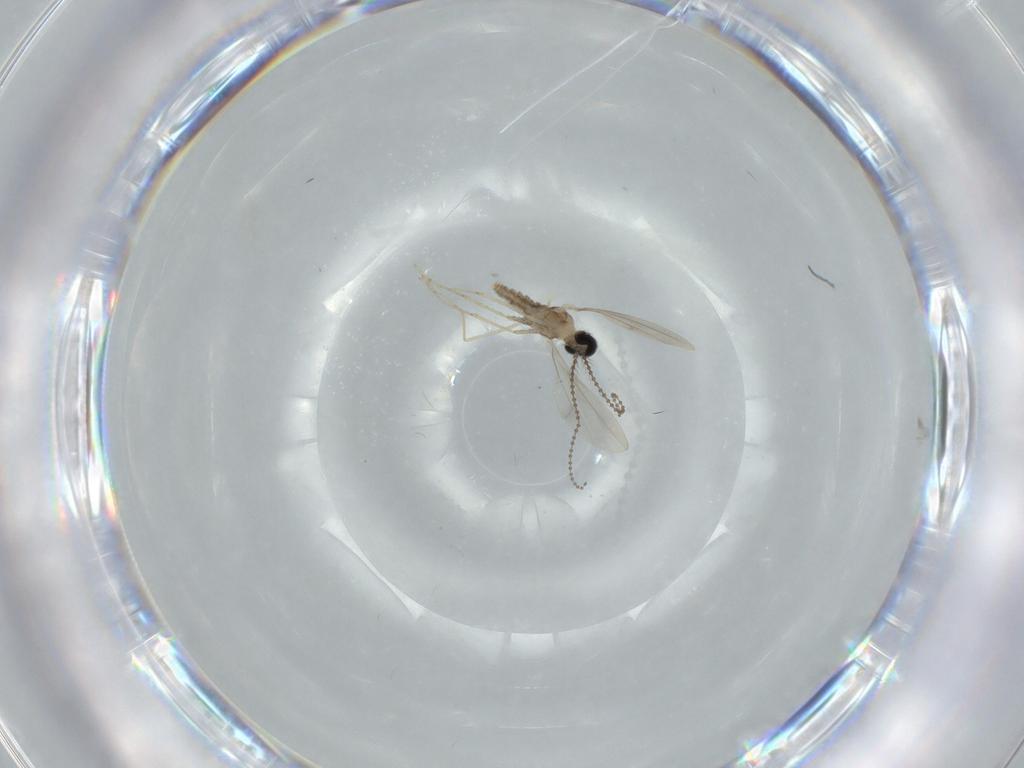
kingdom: Animalia
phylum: Arthropoda
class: Insecta
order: Diptera
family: Cecidomyiidae
